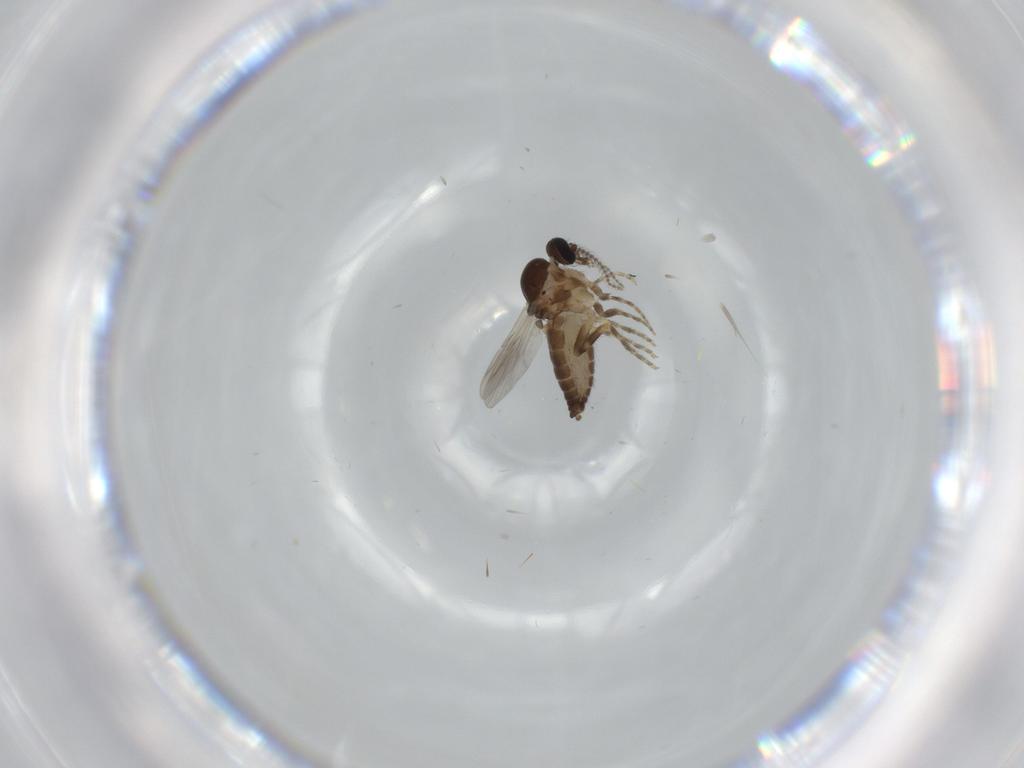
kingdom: Animalia
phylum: Arthropoda
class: Insecta
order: Diptera
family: Ceratopogonidae
